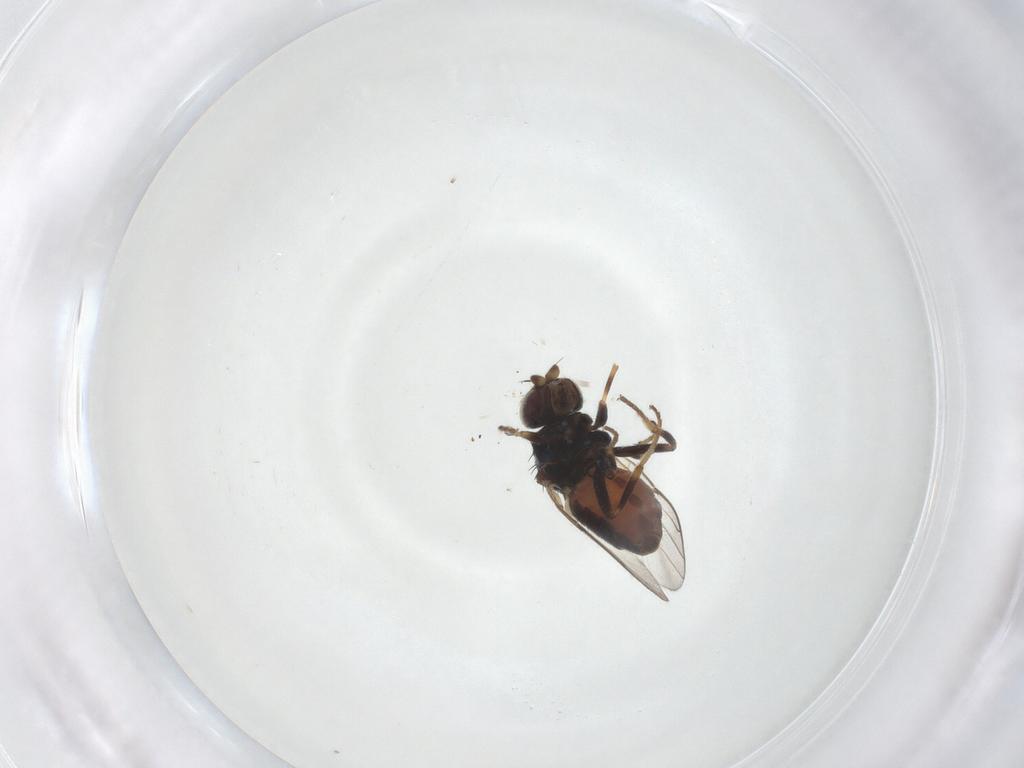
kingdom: Animalia
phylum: Arthropoda
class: Insecta
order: Diptera
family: Chloropidae
